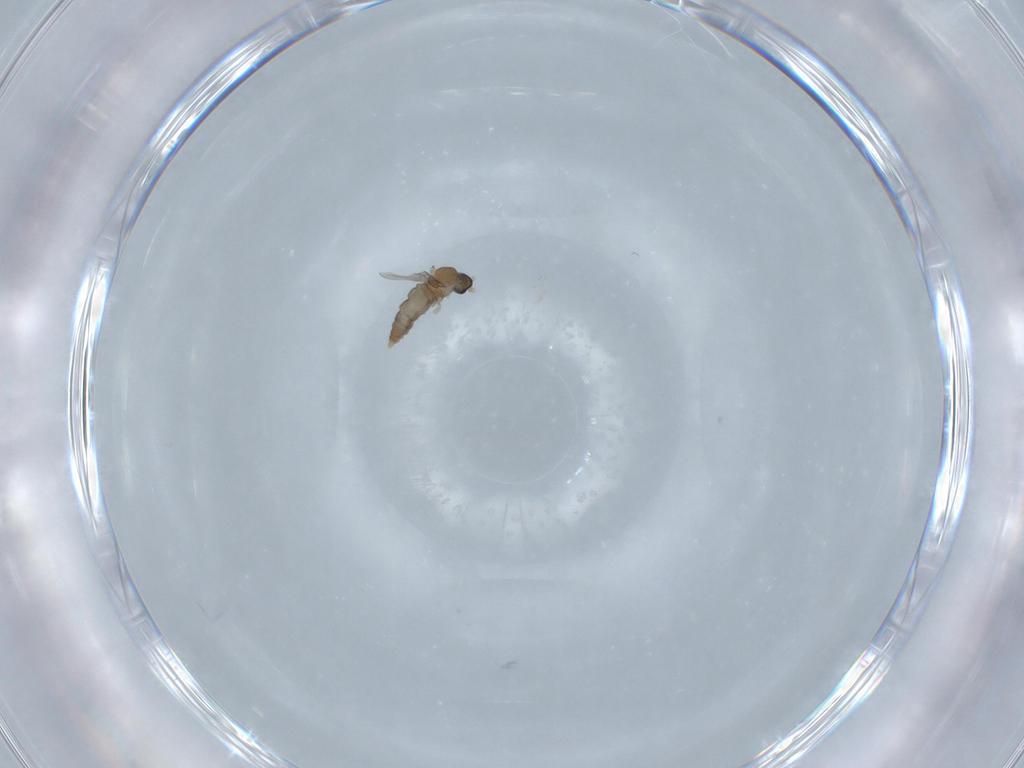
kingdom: Animalia
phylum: Arthropoda
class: Insecta
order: Diptera
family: Cecidomyiidae
